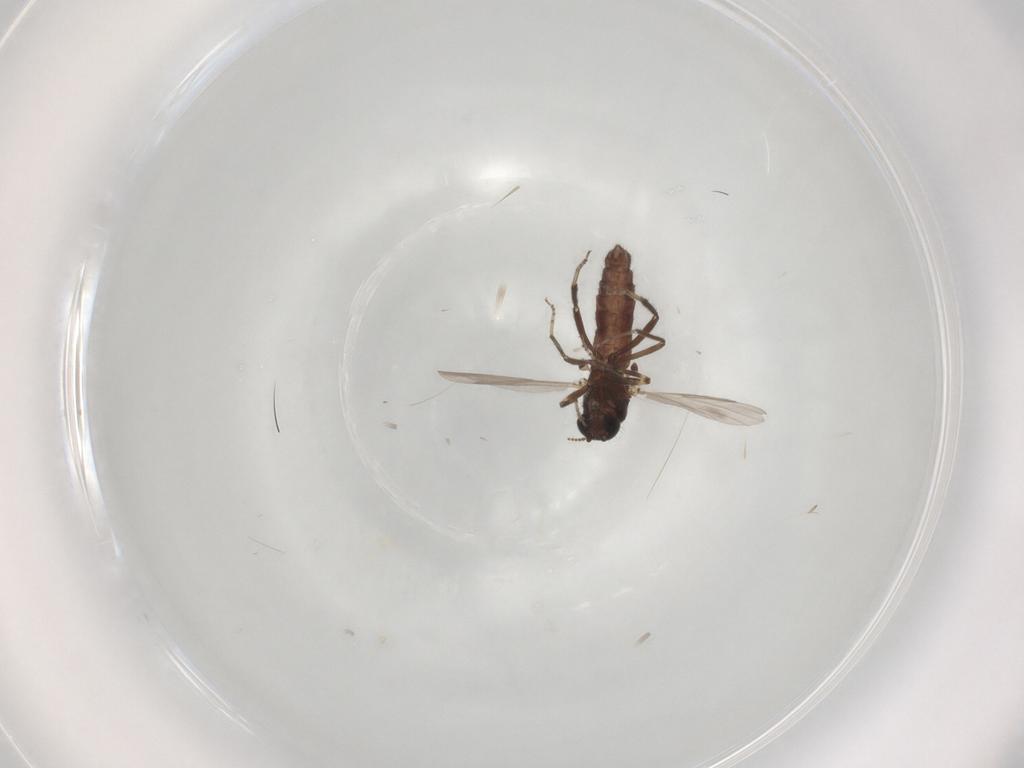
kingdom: Animalia
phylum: Arthropoda
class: Insecta
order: Diptera
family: Ceratopogonidae
